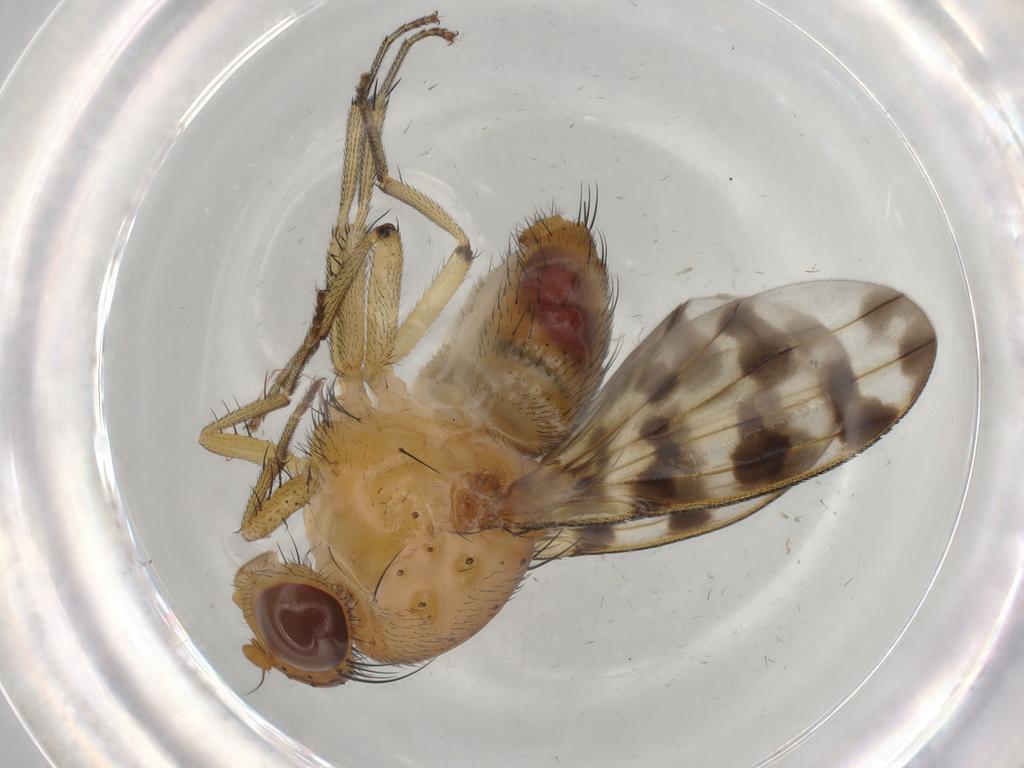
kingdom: Animalia
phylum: Arthropoda
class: Insecta
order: Diptera
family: Psychodidae
